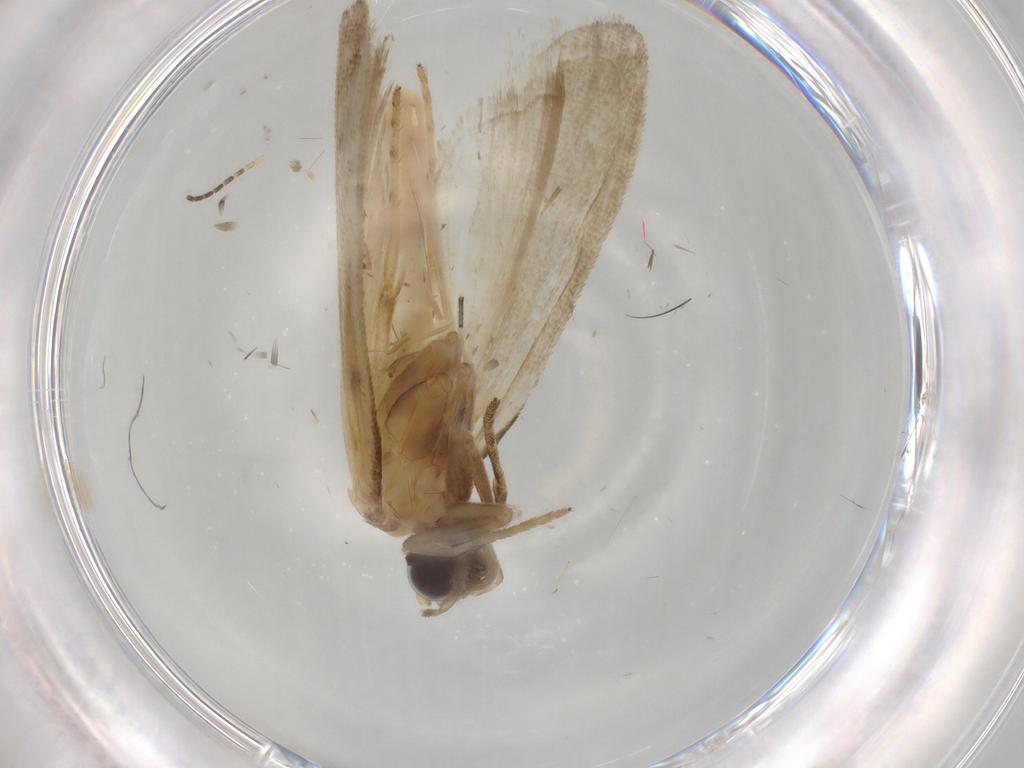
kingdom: Animalia
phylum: Arthropoda
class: Insecta
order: Lepidoptera
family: Noctuidae
